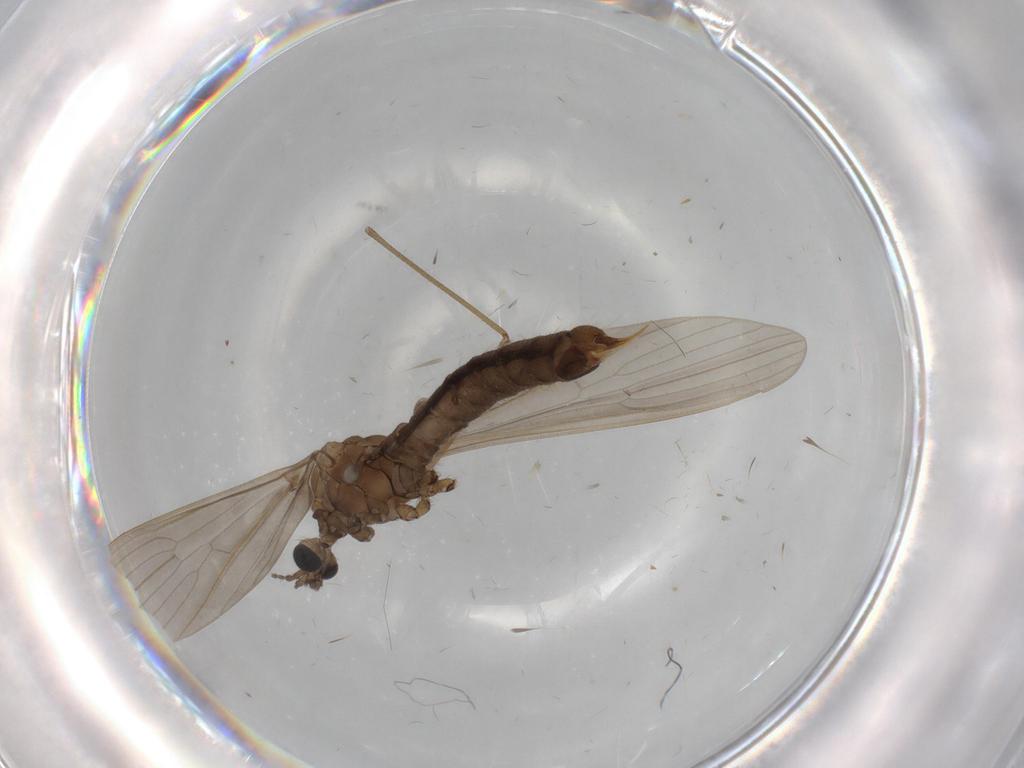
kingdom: Animalia
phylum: Arthropoda
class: Insecta
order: Diptera
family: Limoniidae
